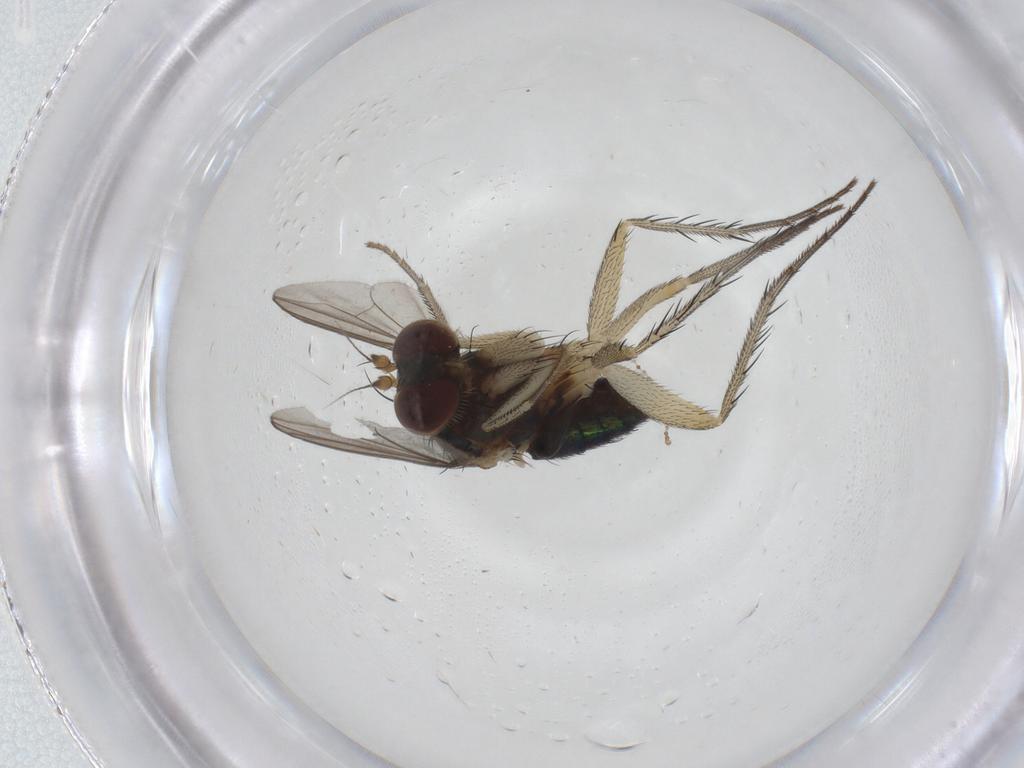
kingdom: Animalia
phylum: Arthropoda
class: Insecta
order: Diptera
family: Dolichopodidae
